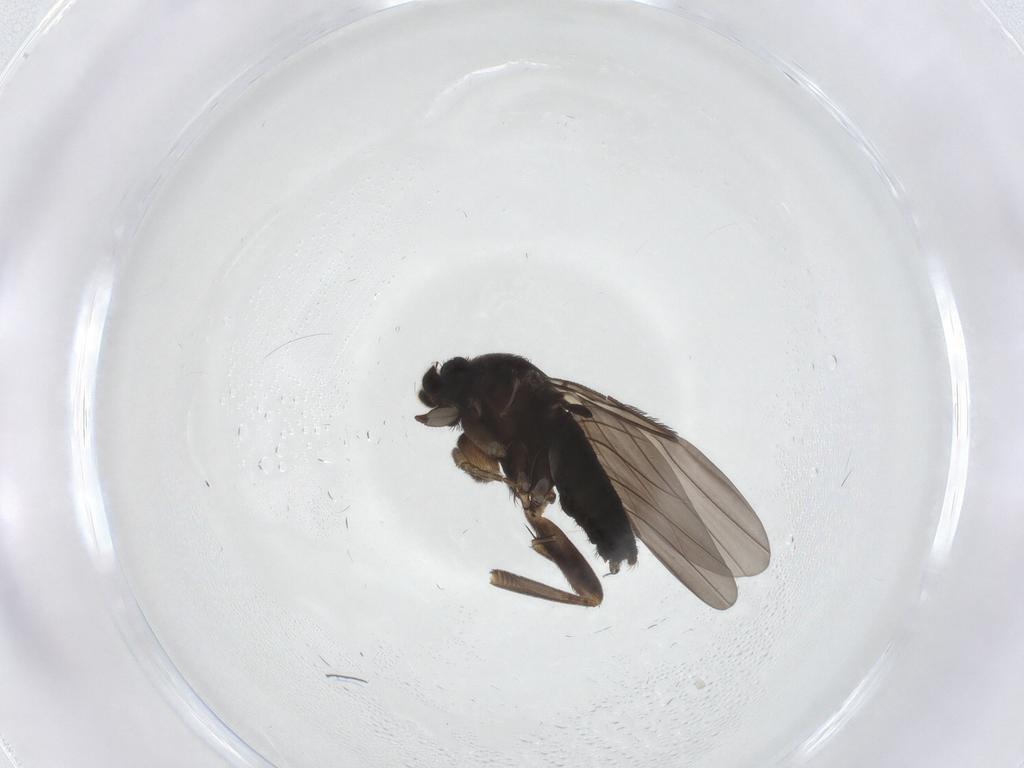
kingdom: Animalia
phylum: Arthropoda
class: Insecta
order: Diptera
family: Phoridae
